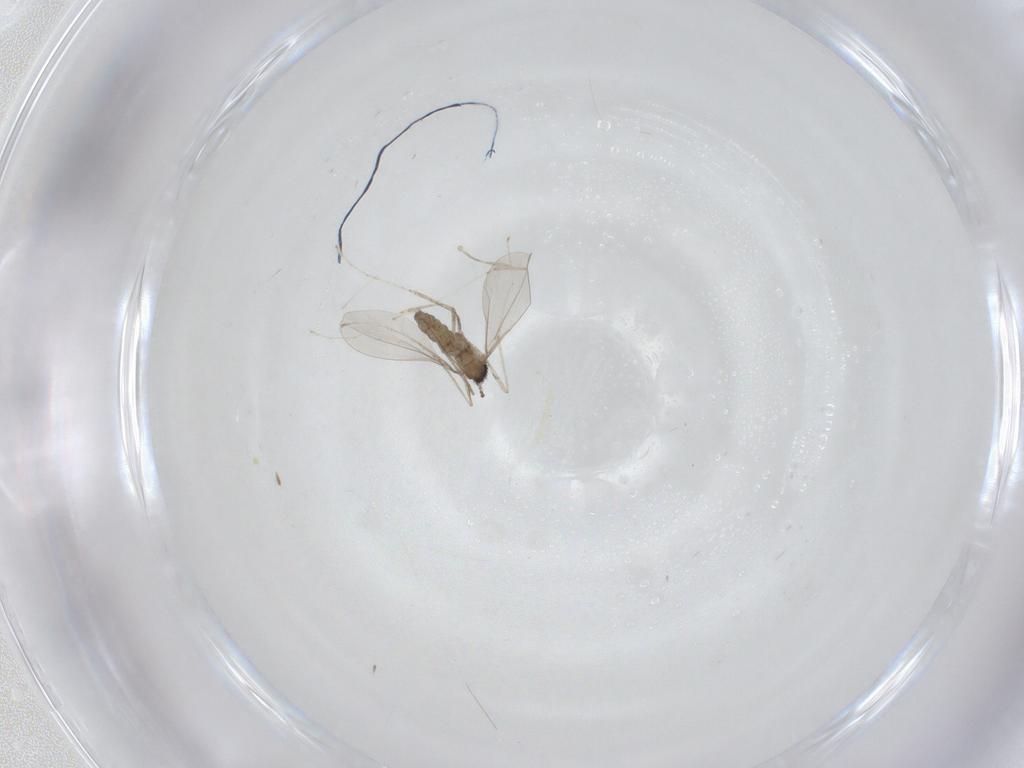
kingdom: Animalia
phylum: Arthropoda
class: Insecta
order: Diptera
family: Cecidomyiidae
